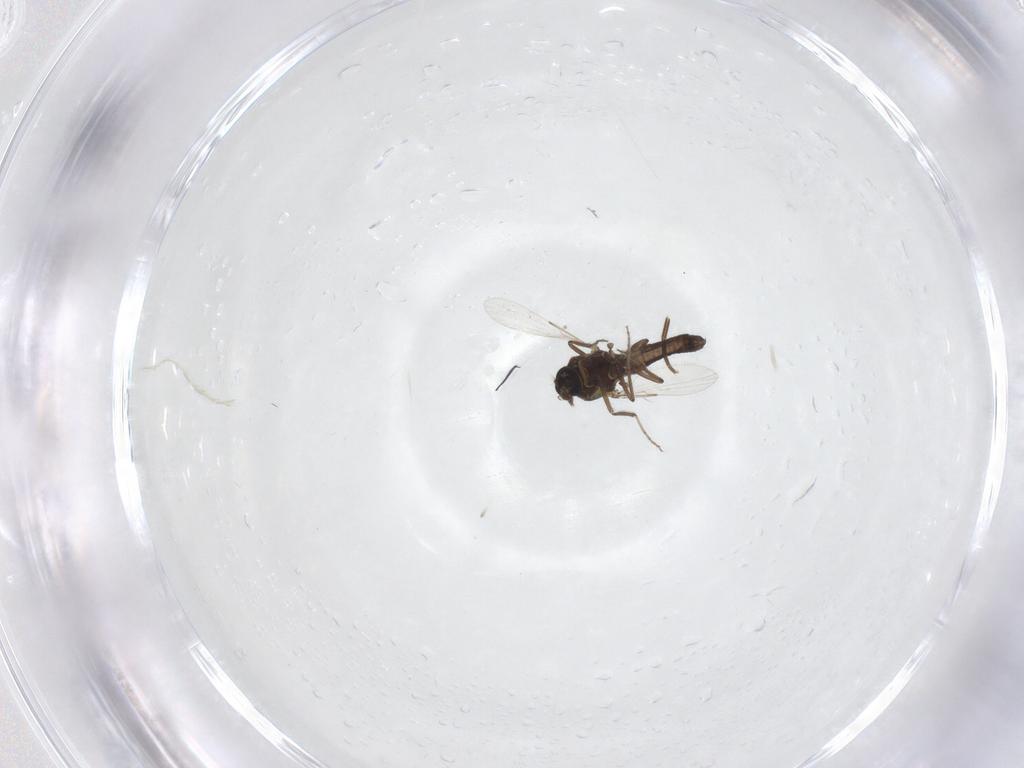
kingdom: Animalia
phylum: Arthropoda
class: Insecta
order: Diptera
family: Ceratopogonidae
